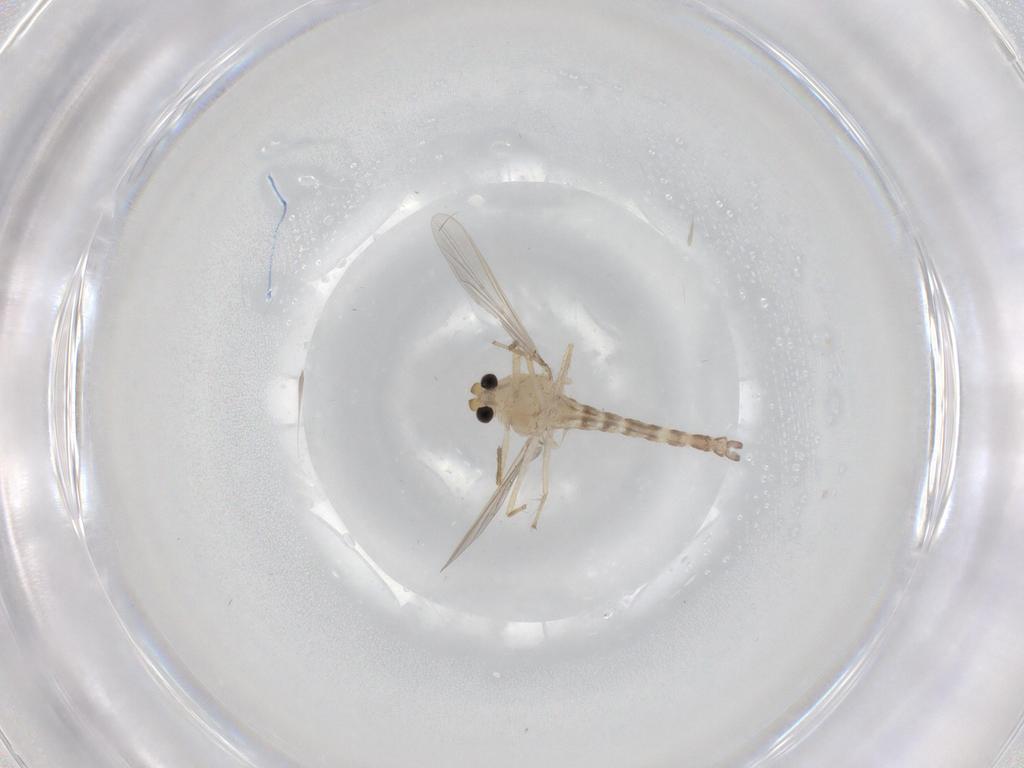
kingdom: Animalia
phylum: Arthropoda
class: Insecta
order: Diptera
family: Chironomidae
